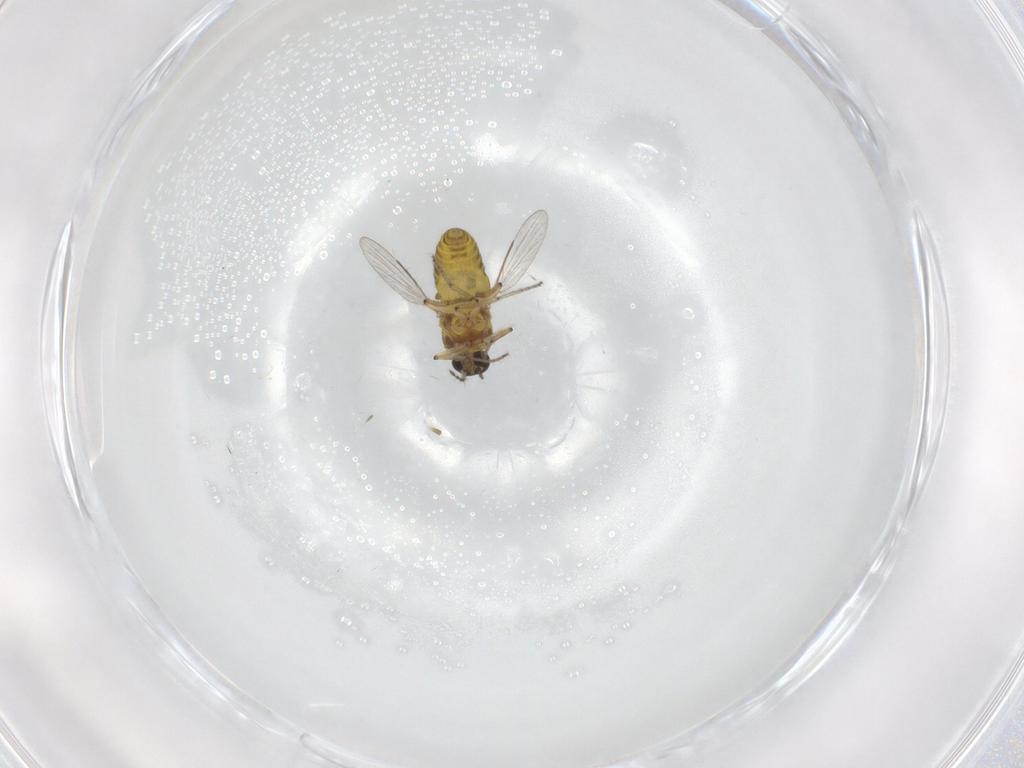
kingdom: Animalia
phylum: Arthropoda
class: Insecta
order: Diptera
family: Ceratopogonidae
